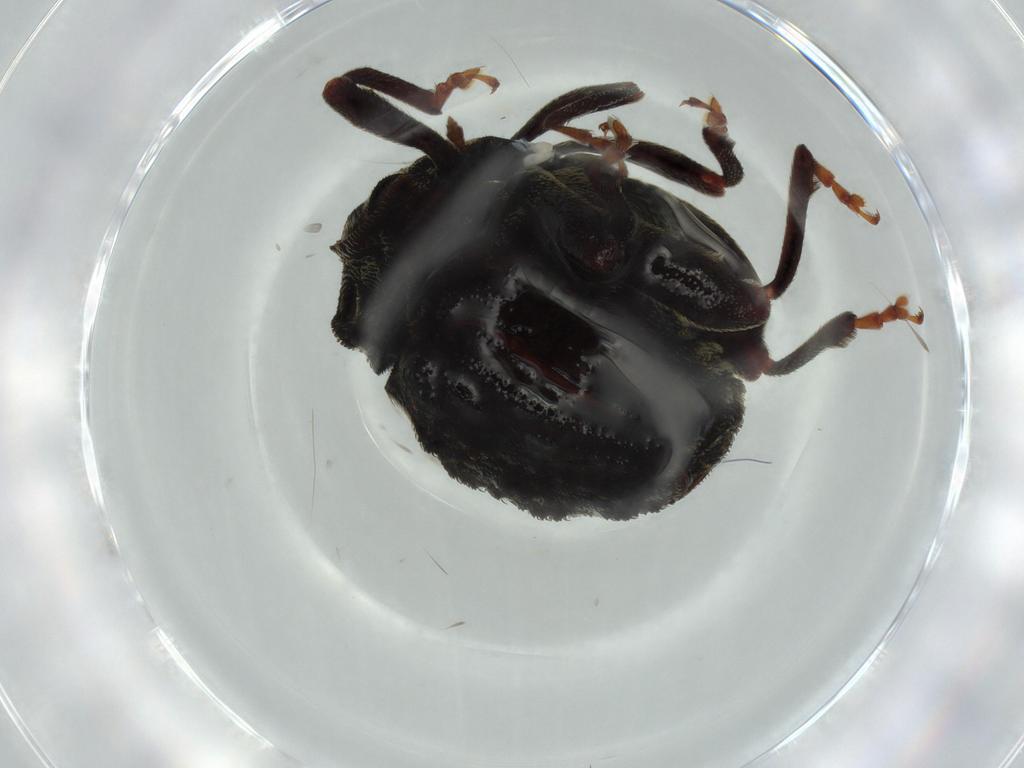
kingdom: Animalia
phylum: Arthropoda
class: Insecta
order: Coleoptera
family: Curculionidae
